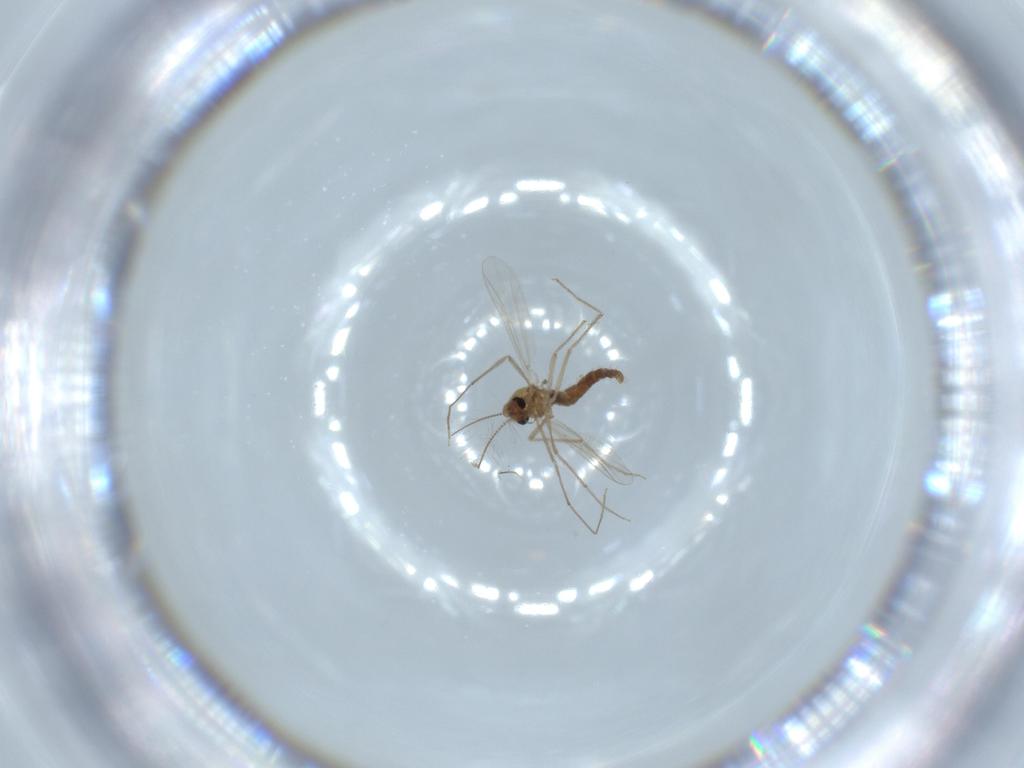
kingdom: Animalia
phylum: Arthropoda
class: Insecta
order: Diptera
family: Chironomidae
